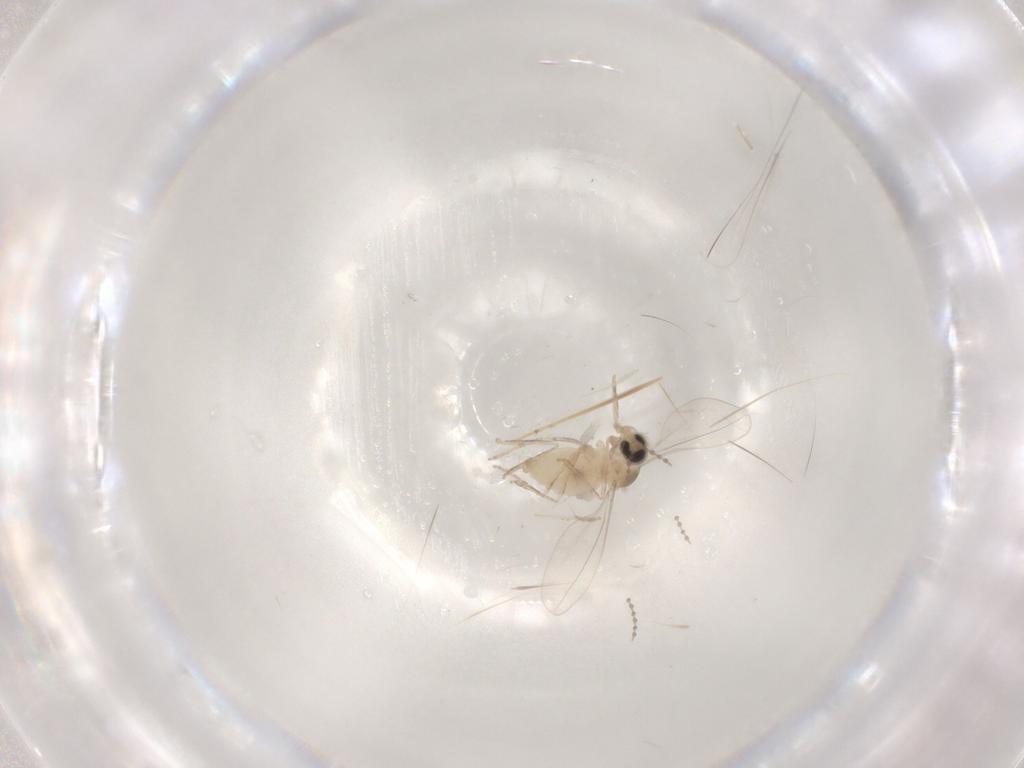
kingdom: Animalia
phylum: Arthropoda
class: Insecta
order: Diptera
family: Cecidomyiidae
